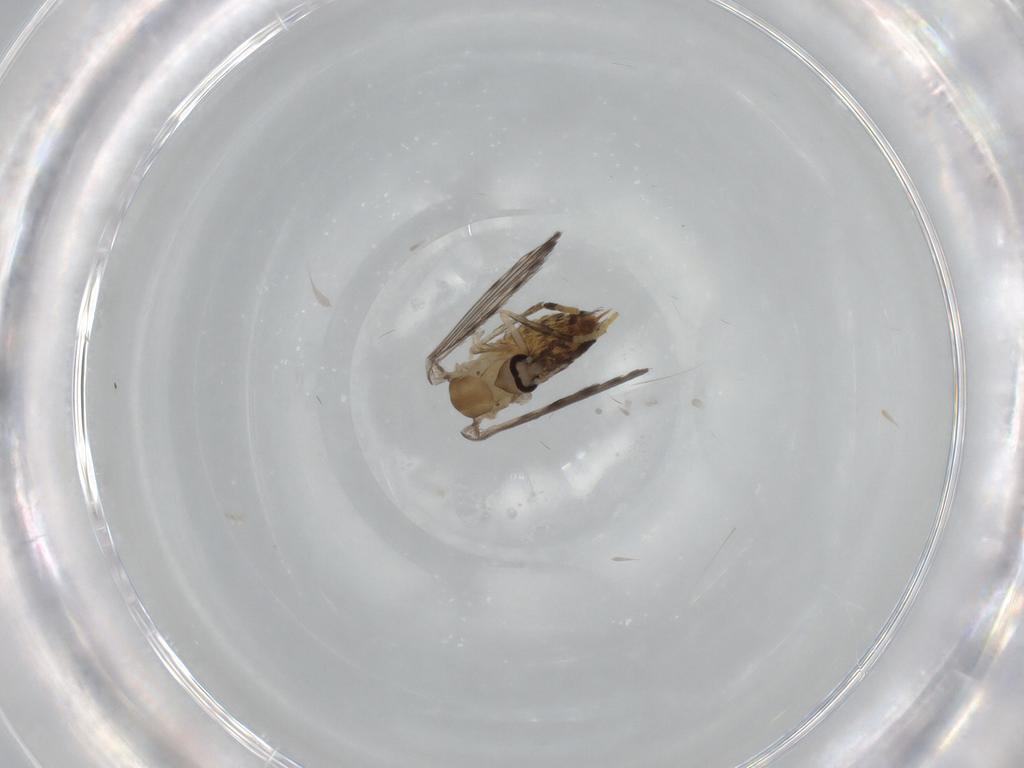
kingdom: Animalia
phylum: Arthropoda
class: Insecta
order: Diptera
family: Psychodidae
